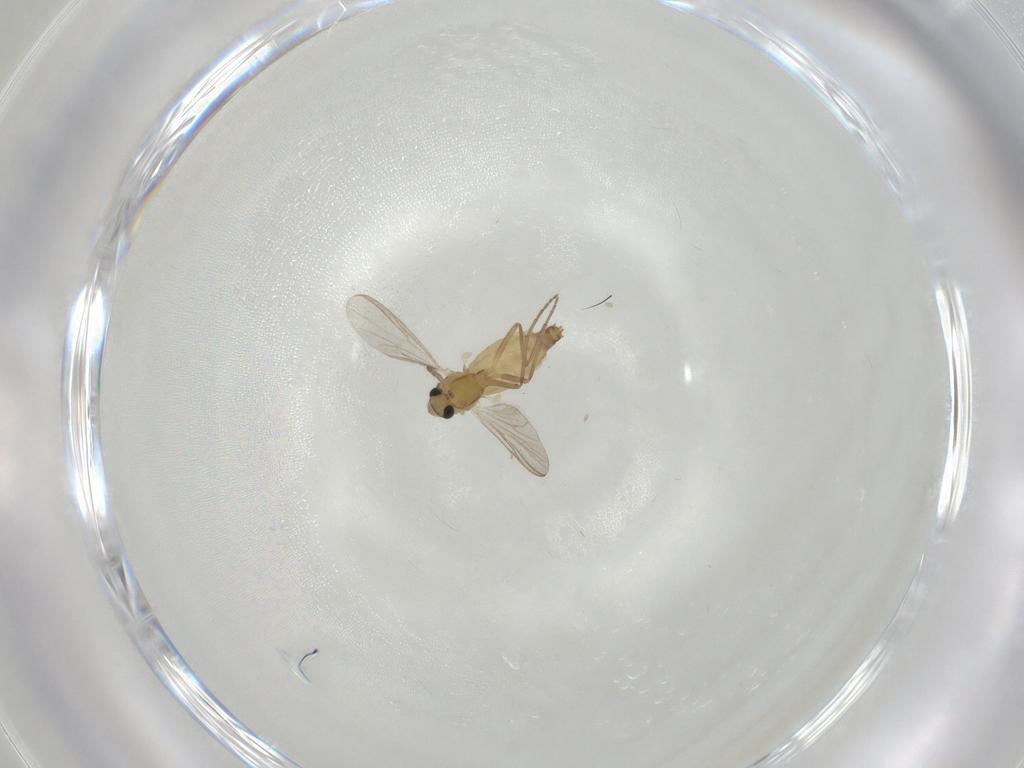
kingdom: Animalia
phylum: Arthropoda
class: Insecta
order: Diptera
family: Chironomidae
